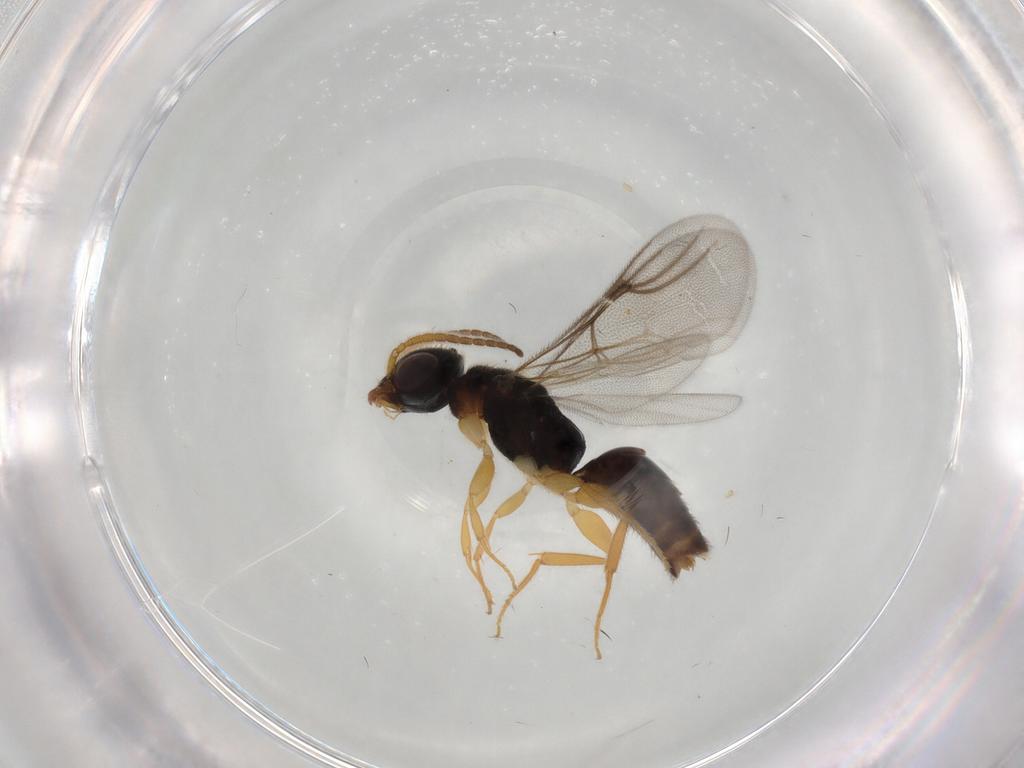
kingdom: Animalia
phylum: Arthropoda
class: Insecta
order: Hymenoptera
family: Bethylidae
